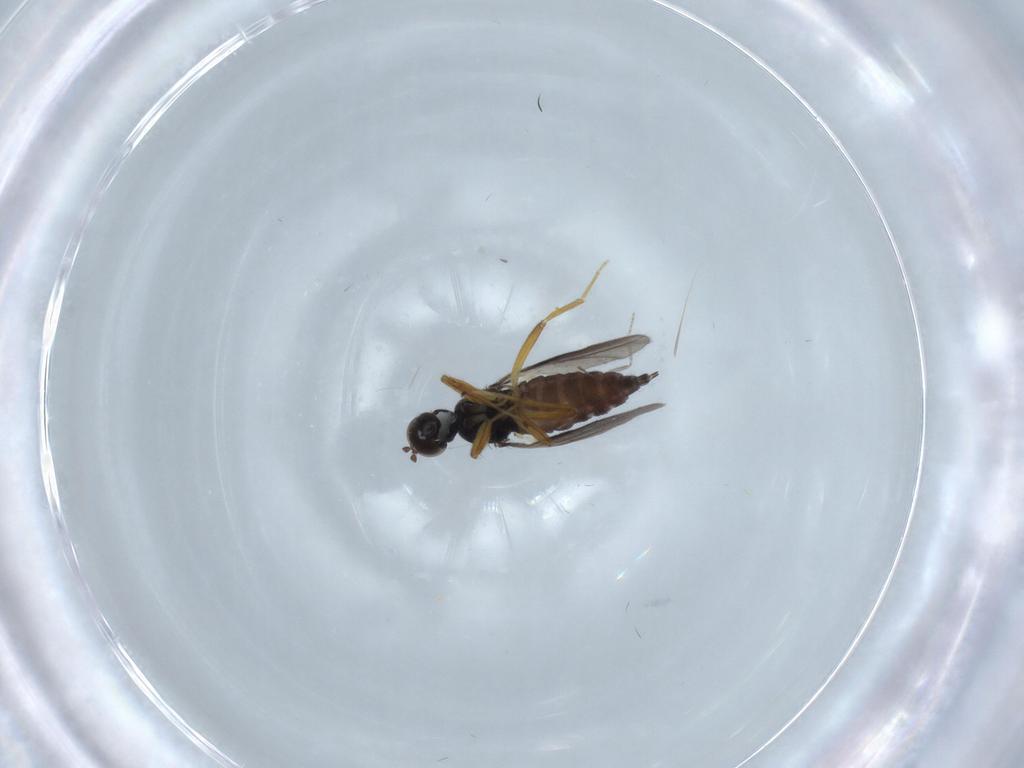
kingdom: Animalia
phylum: Arthropoda
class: Insecta
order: Diptera
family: Hybotidae
